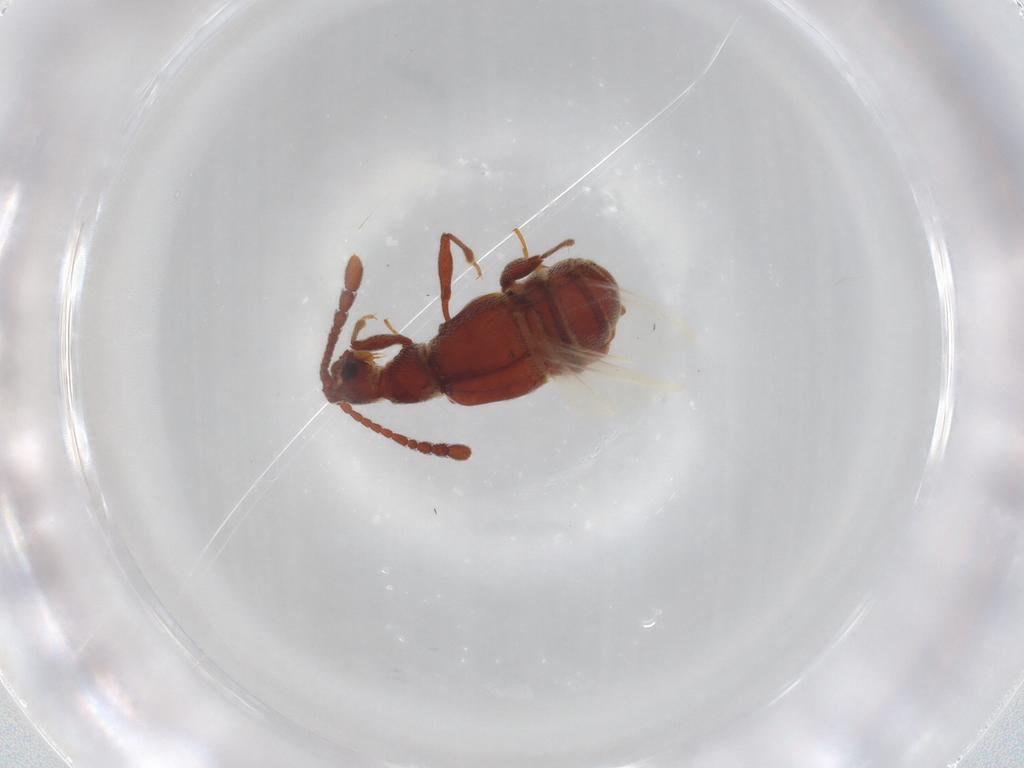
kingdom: Animalia
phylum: Arthropoda
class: Insecta
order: Coleoptera
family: Staphylinidae
